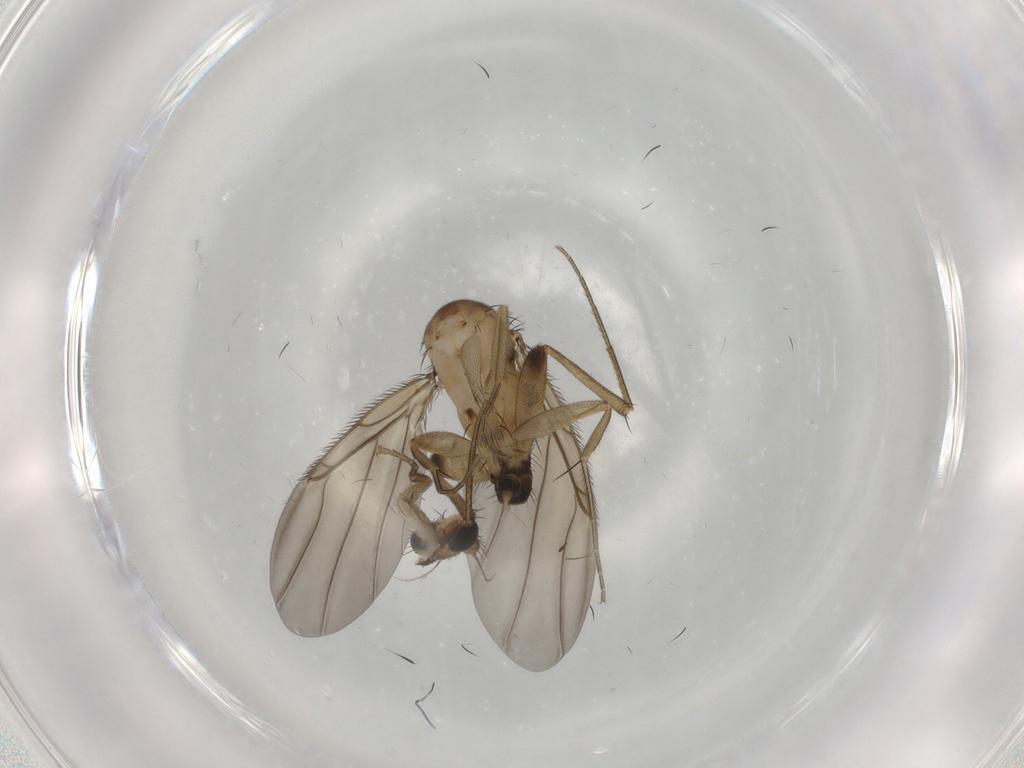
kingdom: Animalia
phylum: Arthropoda
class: Insecta
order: Diptera
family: Phoridae
